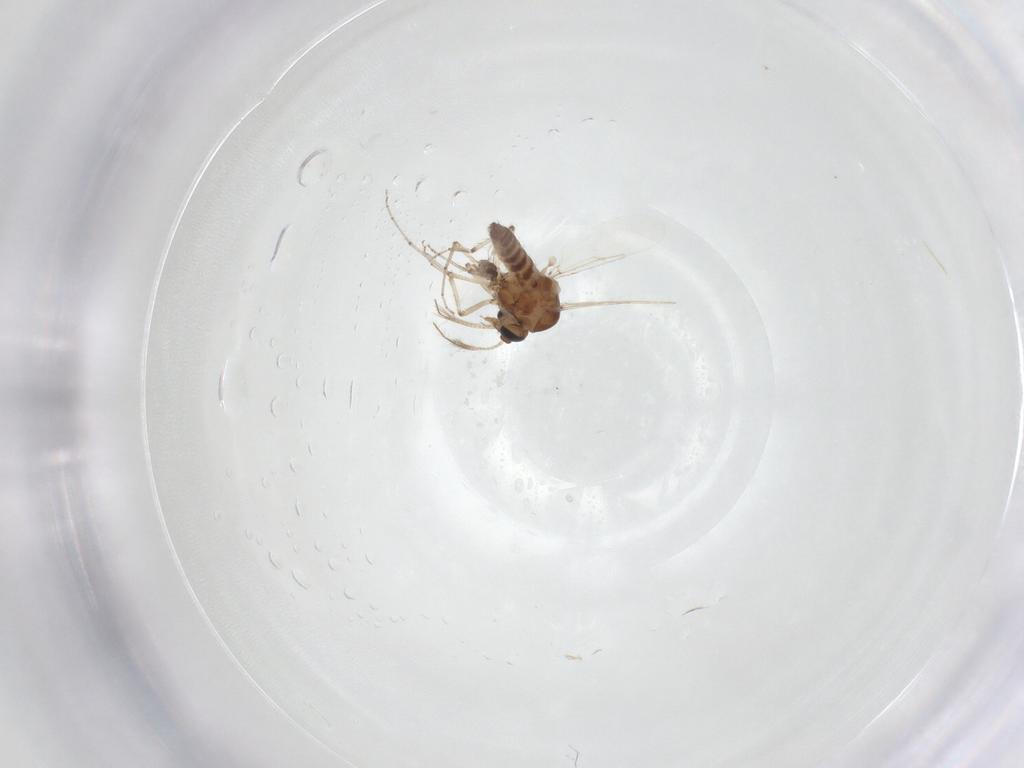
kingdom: Animalia
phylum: Arthropoda
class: Insecta
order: Diptera
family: Ceratopogonidae
